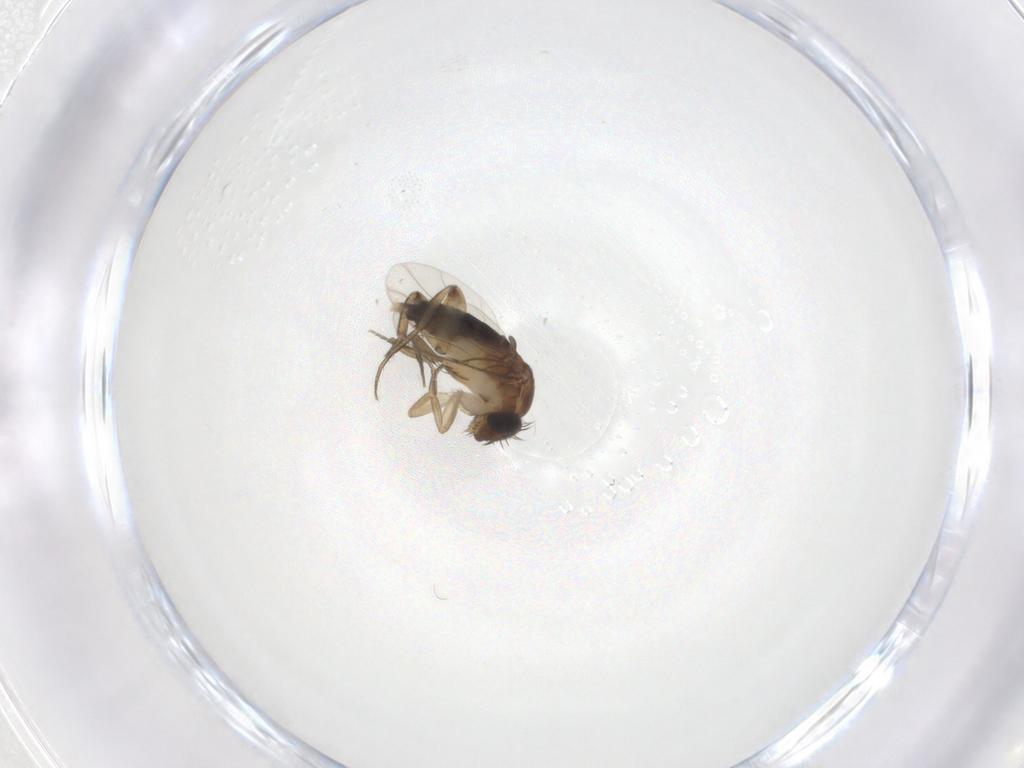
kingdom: Animalia
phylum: Arthropoda
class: Insecta
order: Diptera
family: Phoridae
